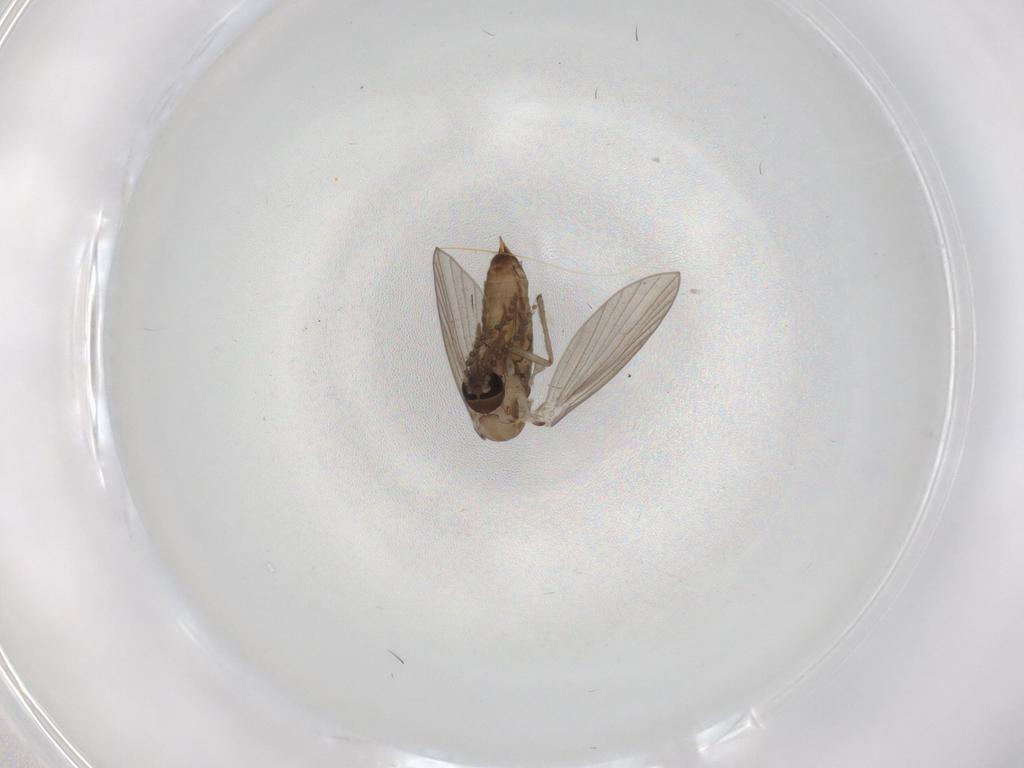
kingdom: Animalia
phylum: Arthropoda
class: Insecta
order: Diptera
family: Psychodidae
